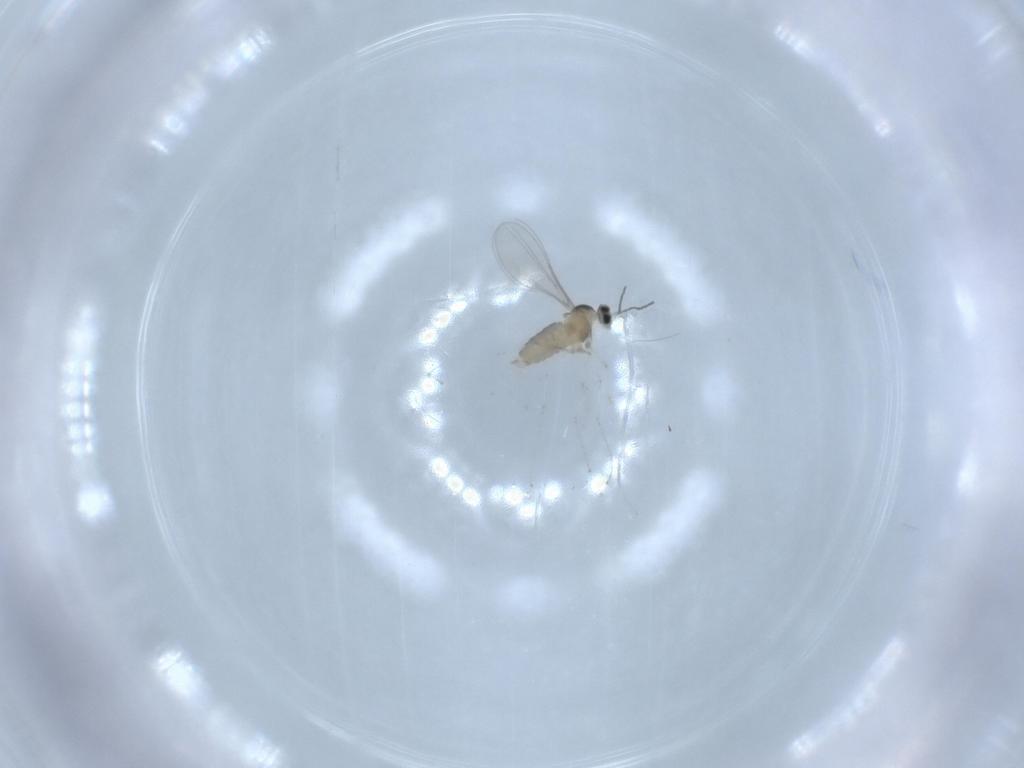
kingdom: Animalia
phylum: Arthropoda
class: Insecta
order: Diptera
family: Cecidomyiidae
